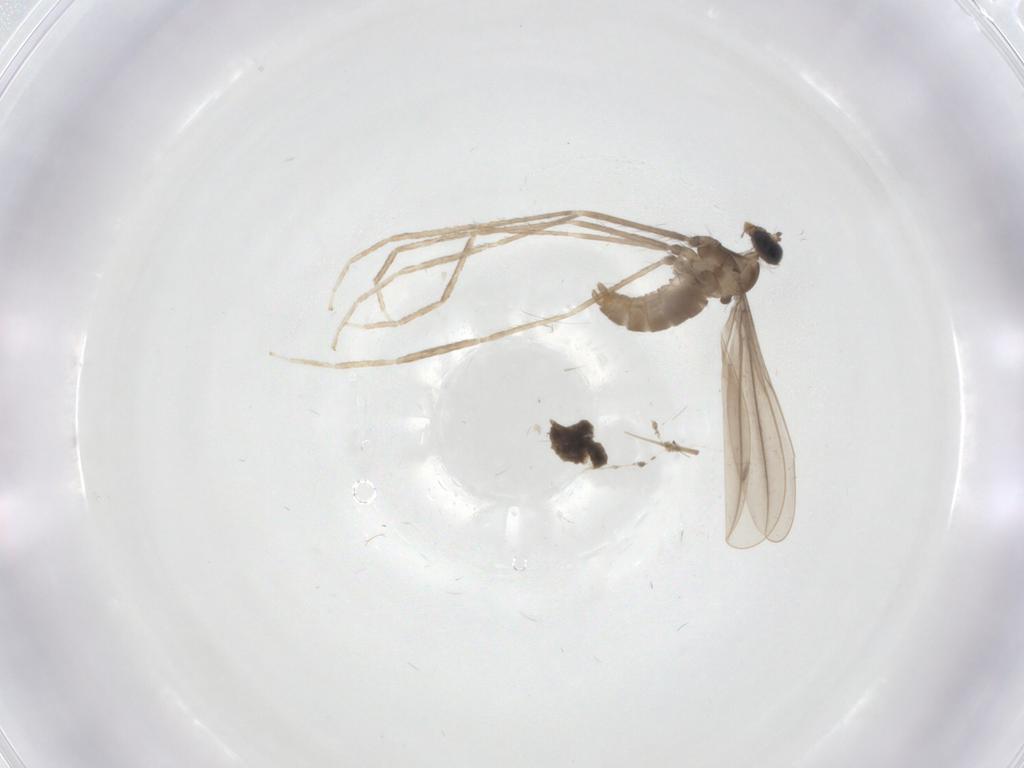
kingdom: Animalia
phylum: Arthropoda
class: Insecta
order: Diptera
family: Cecidomyiidae
